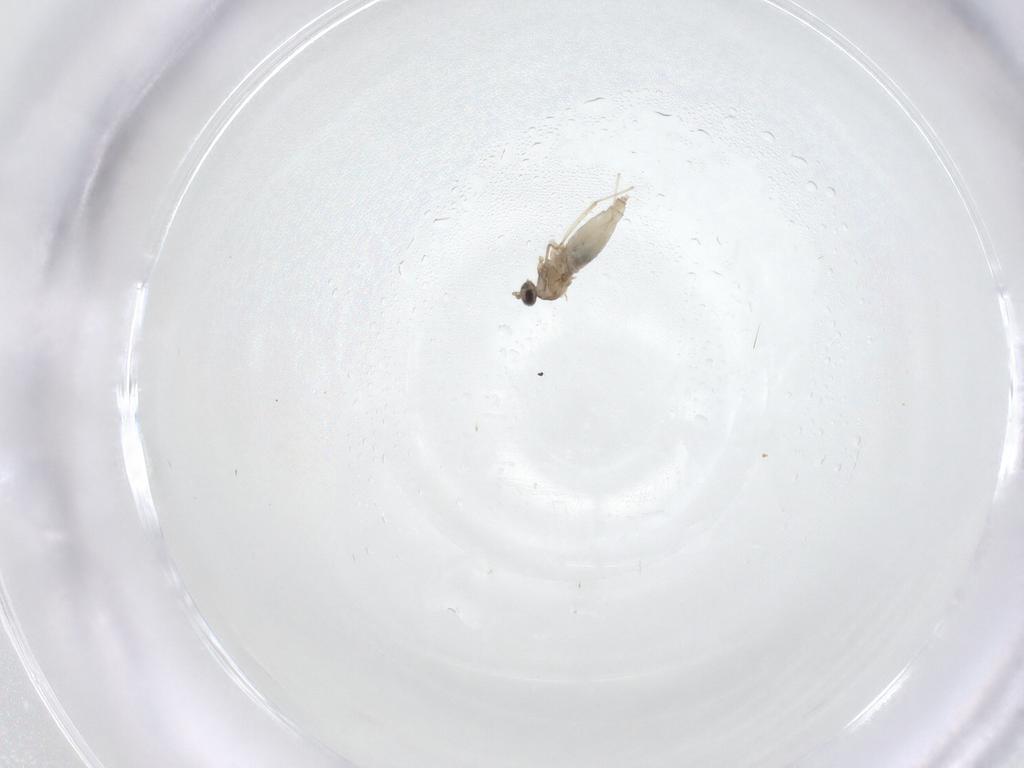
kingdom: Animalia
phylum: Arthropoda
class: Insecta
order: Diptera
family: Cecidomyiidae
